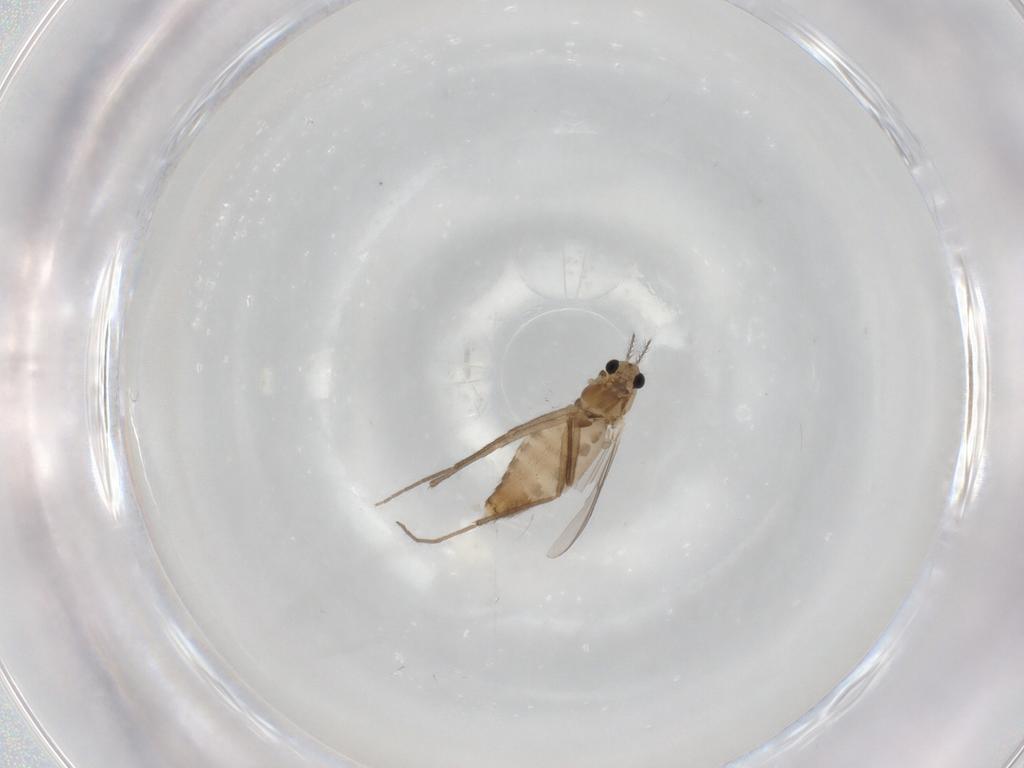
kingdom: Animalia
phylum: Arthropoda
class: Insecta
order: Diptera
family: Chironomidae
